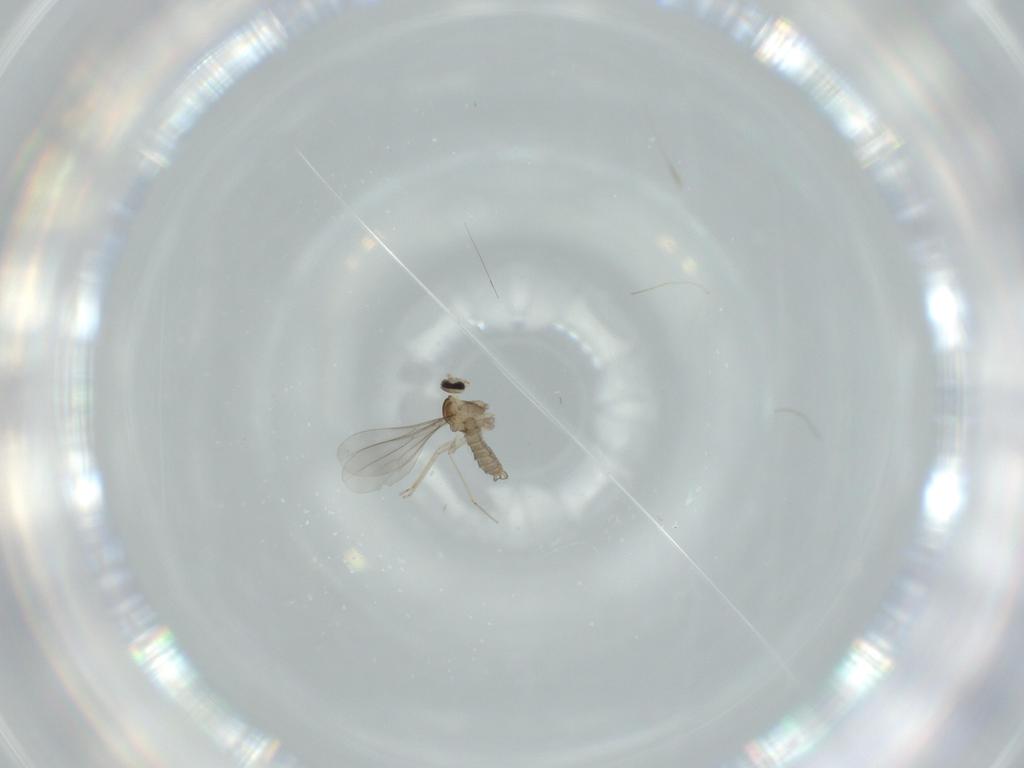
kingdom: Animalia
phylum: Arthropoda
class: Insecta
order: Diptera
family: Cecidomyiidae
